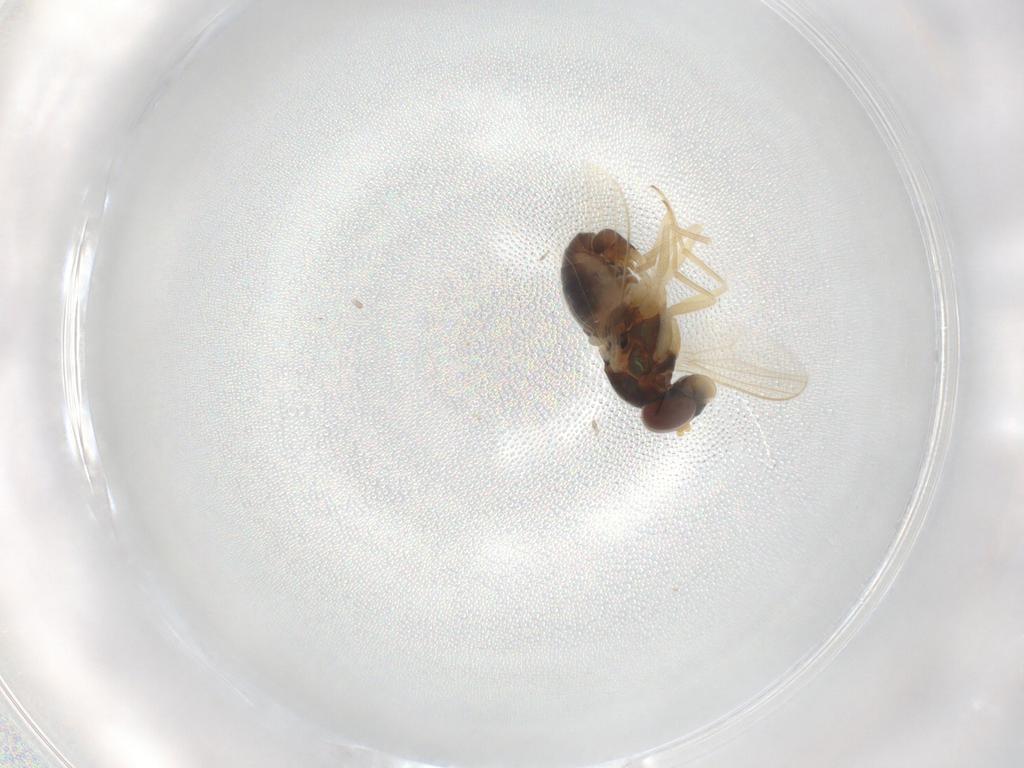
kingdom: Animalia
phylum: Arthropoda
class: Insecta
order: Diptera
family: Dolichopodidae
